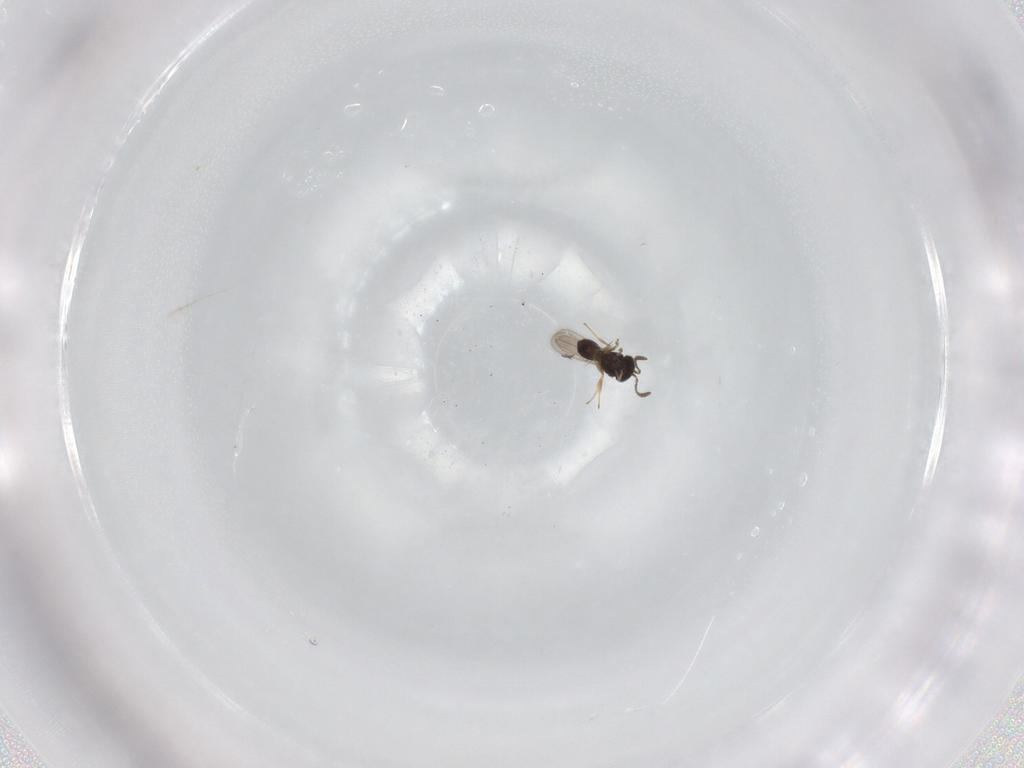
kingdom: Animalia
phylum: Arthropoda
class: Insecta
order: Hymenoptera
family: Scelionidae
